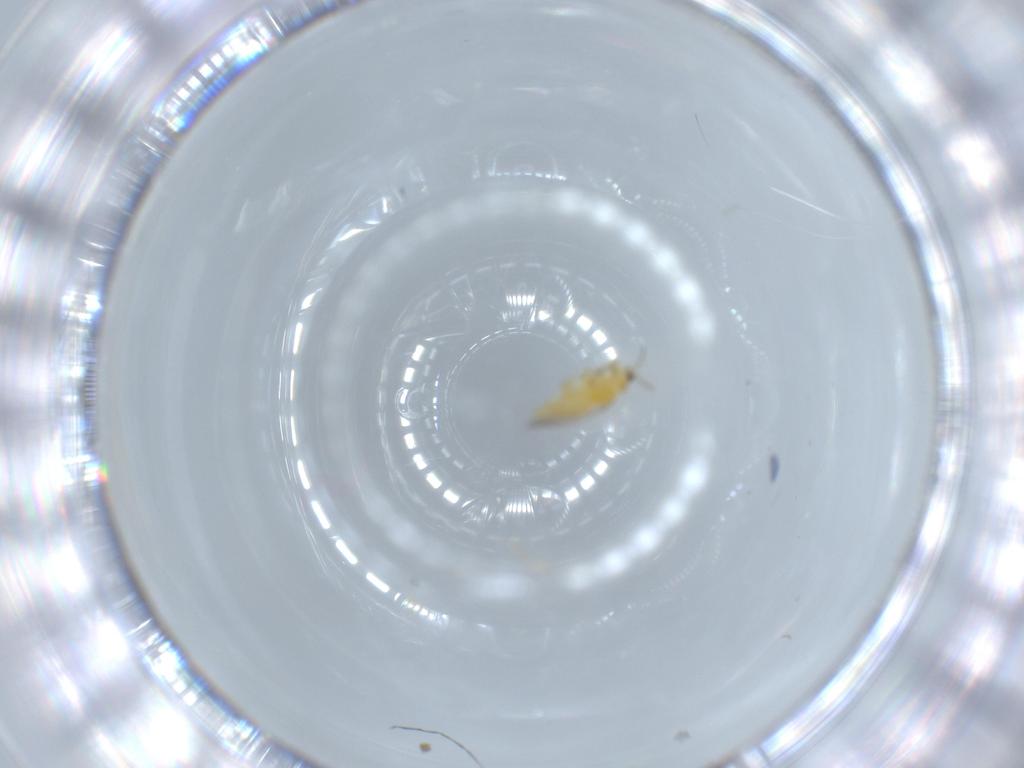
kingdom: Animalia
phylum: Arthropoda
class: Insecta
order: Thysanoptera
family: Thripidae
